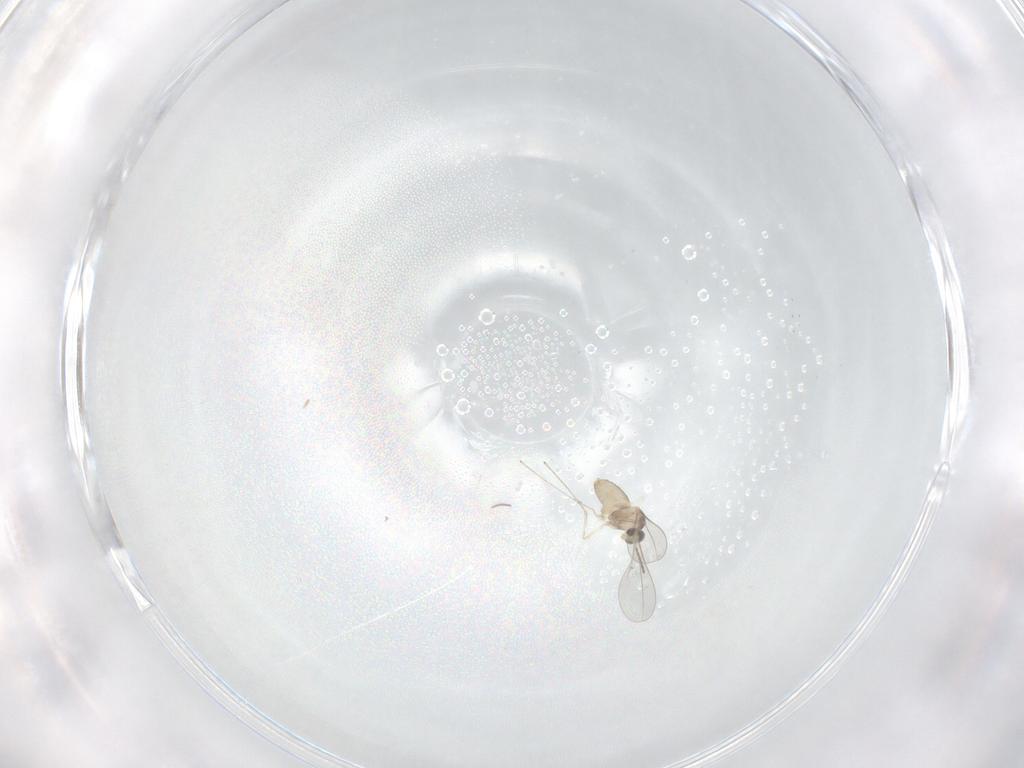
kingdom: Animalia
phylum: Arthropoda
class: Insecta
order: Diptera
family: Cecidomyiidae
